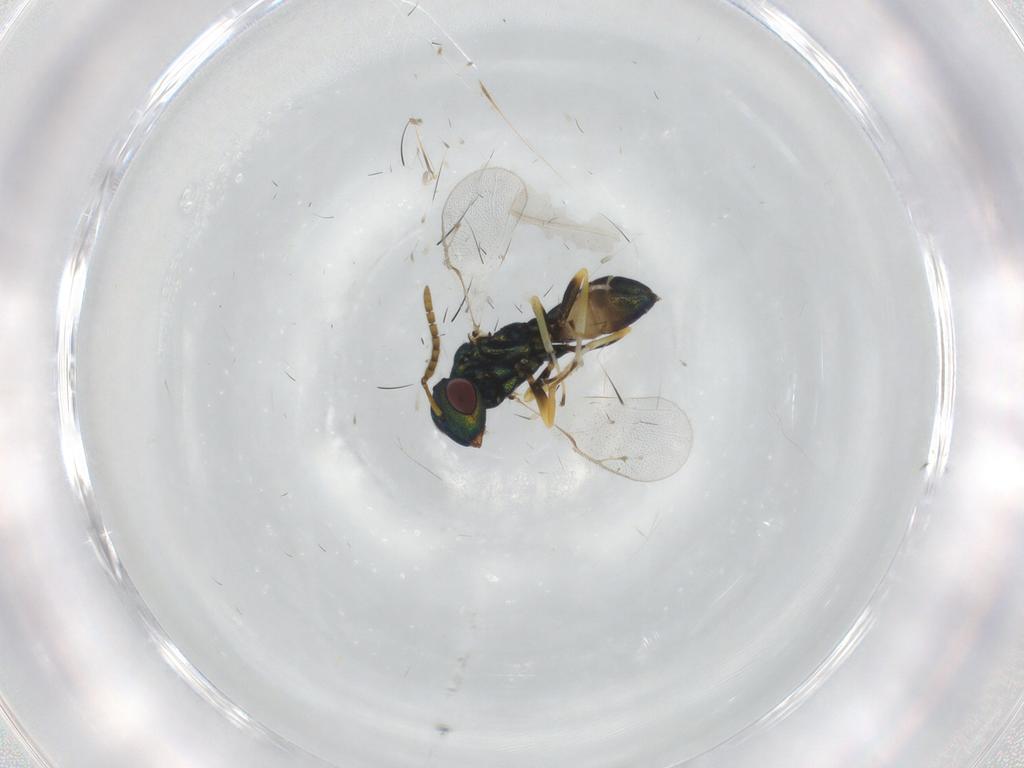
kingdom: Animalia
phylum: Arthropoda
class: Insecta
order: Hymenoptera
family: Pteromalidae
